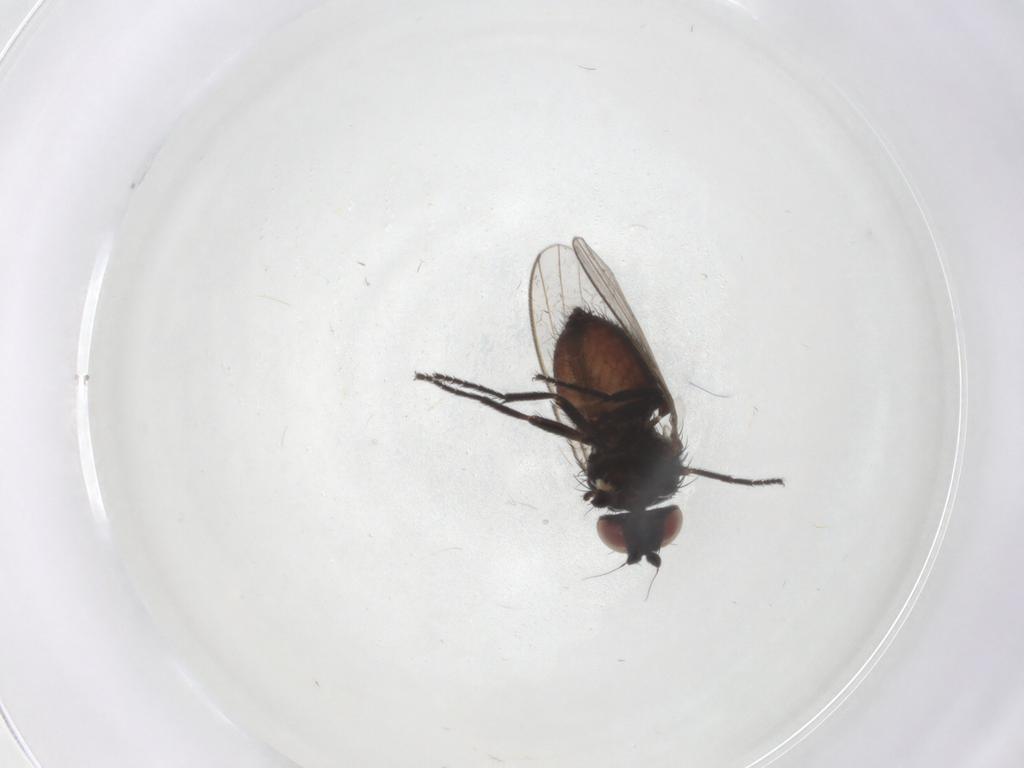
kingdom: Animalia
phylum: Arthropoda
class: Insecta
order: Diptera
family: Milichiidae
